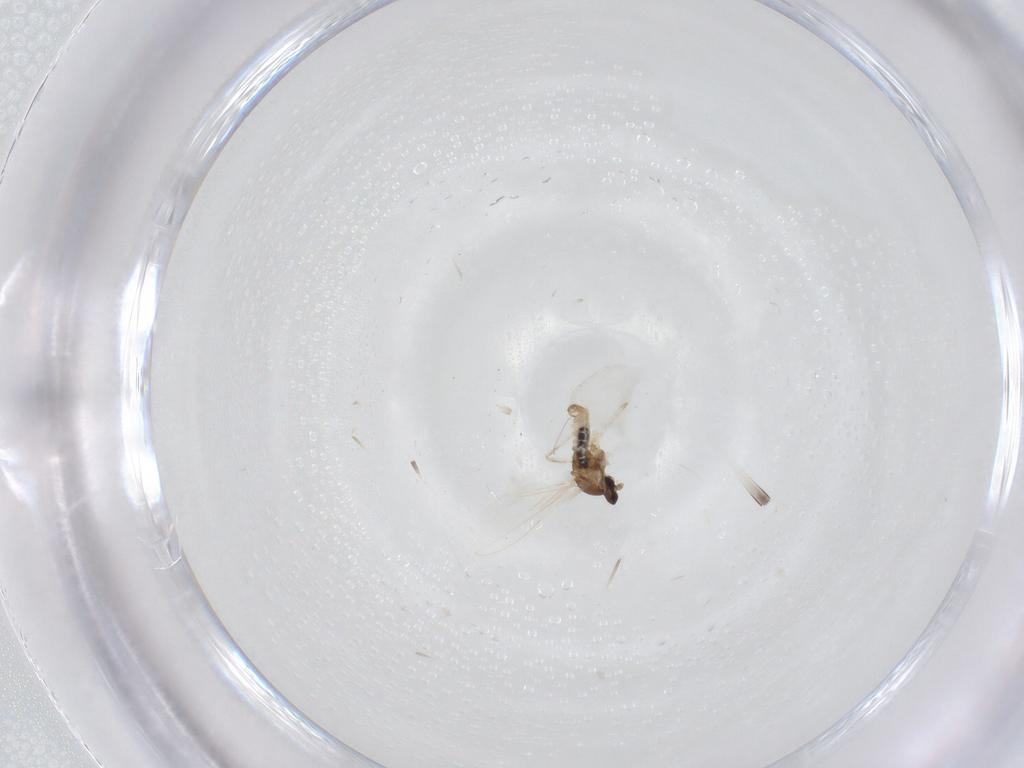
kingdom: Animalia
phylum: Arthropoda
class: Insecta
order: Diptera
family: Cecidomyiidae
